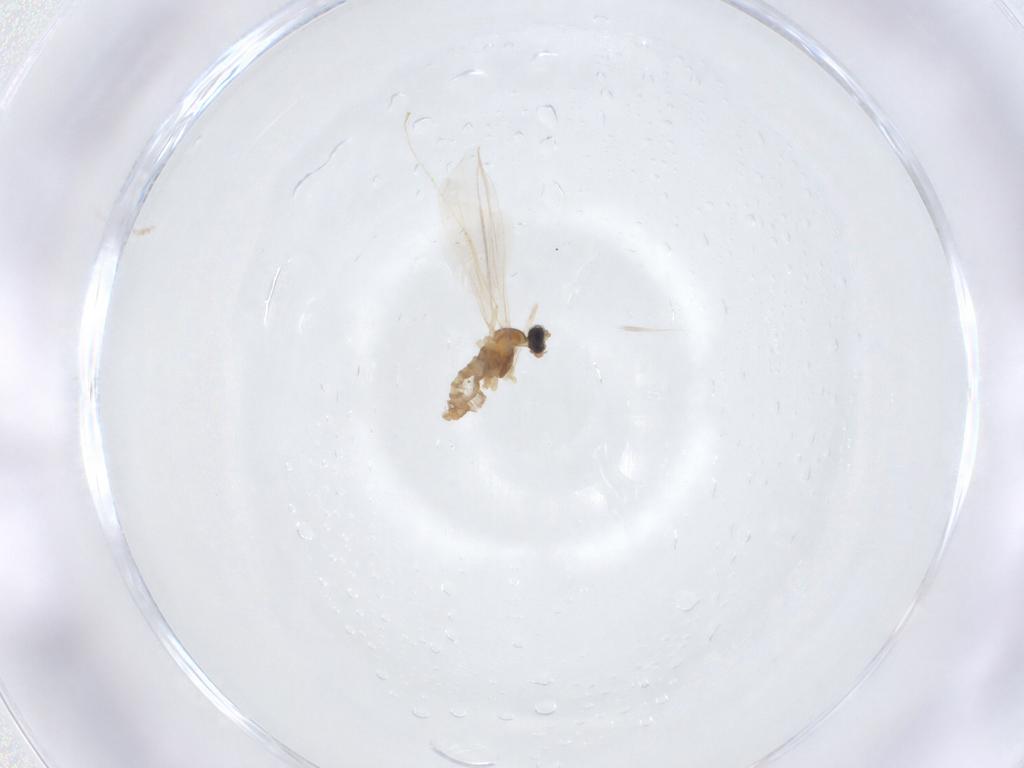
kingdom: Animalia
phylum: Arthropoda
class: Insecta
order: Diptera
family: Cecidomyiidae
